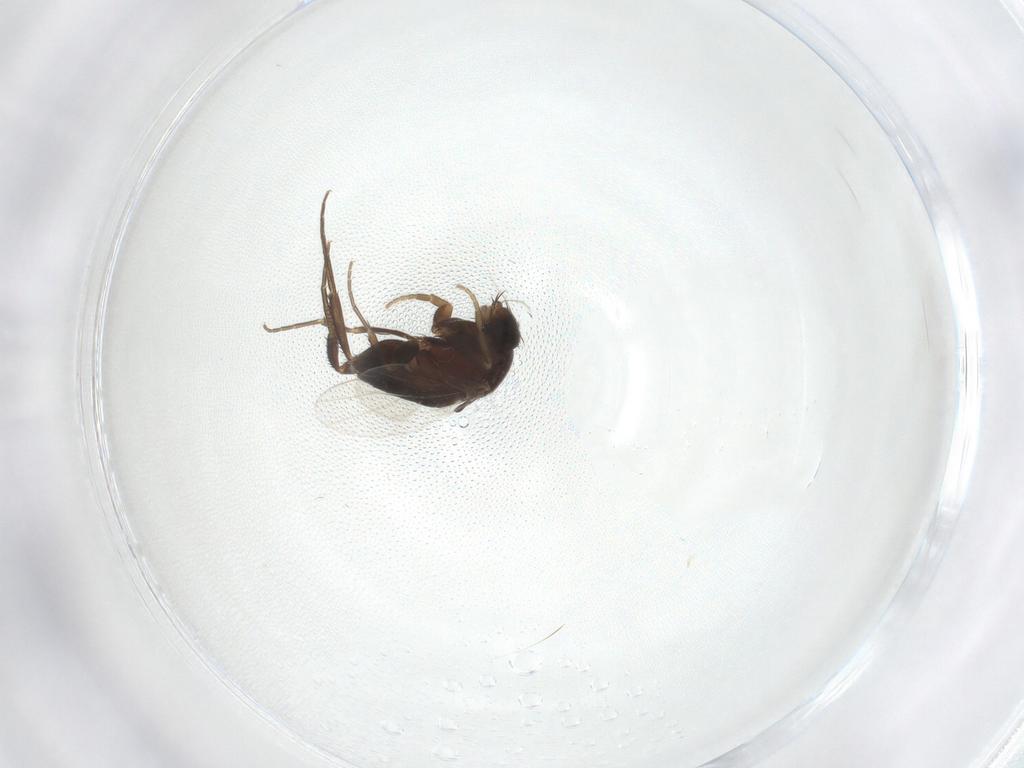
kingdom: Animalia
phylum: Arthropoda
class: Insecta
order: Diptera
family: Phoridae
